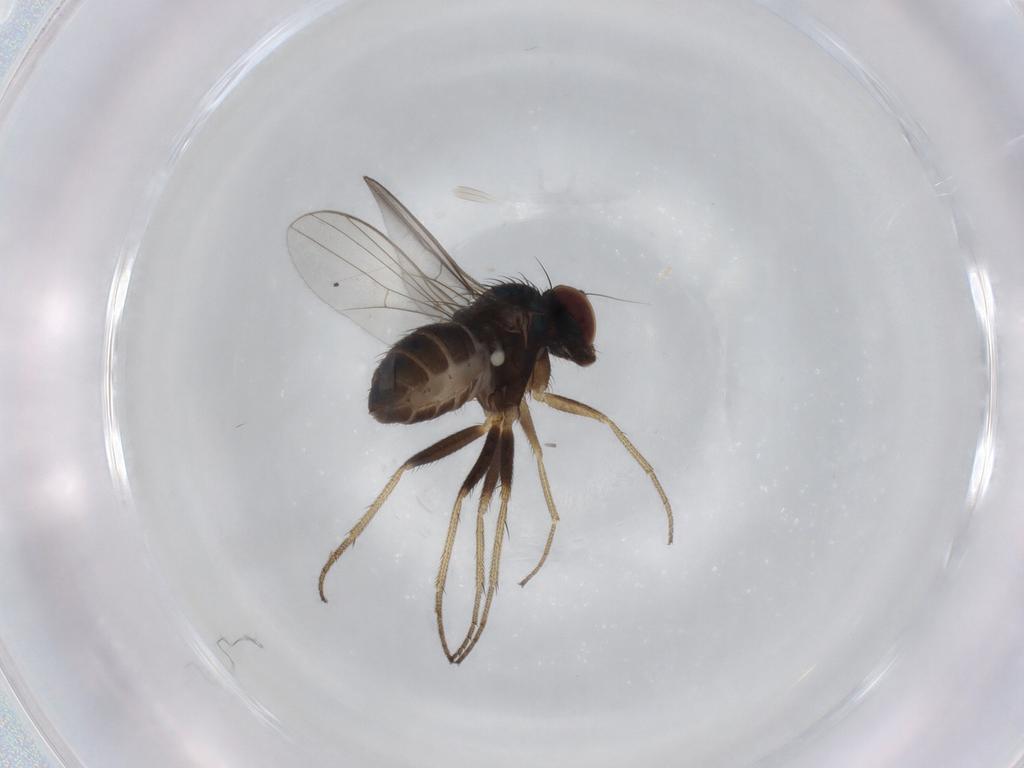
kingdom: Animalia
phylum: Arthropoda
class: Insecta
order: Diptera
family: Dolichopodidae
